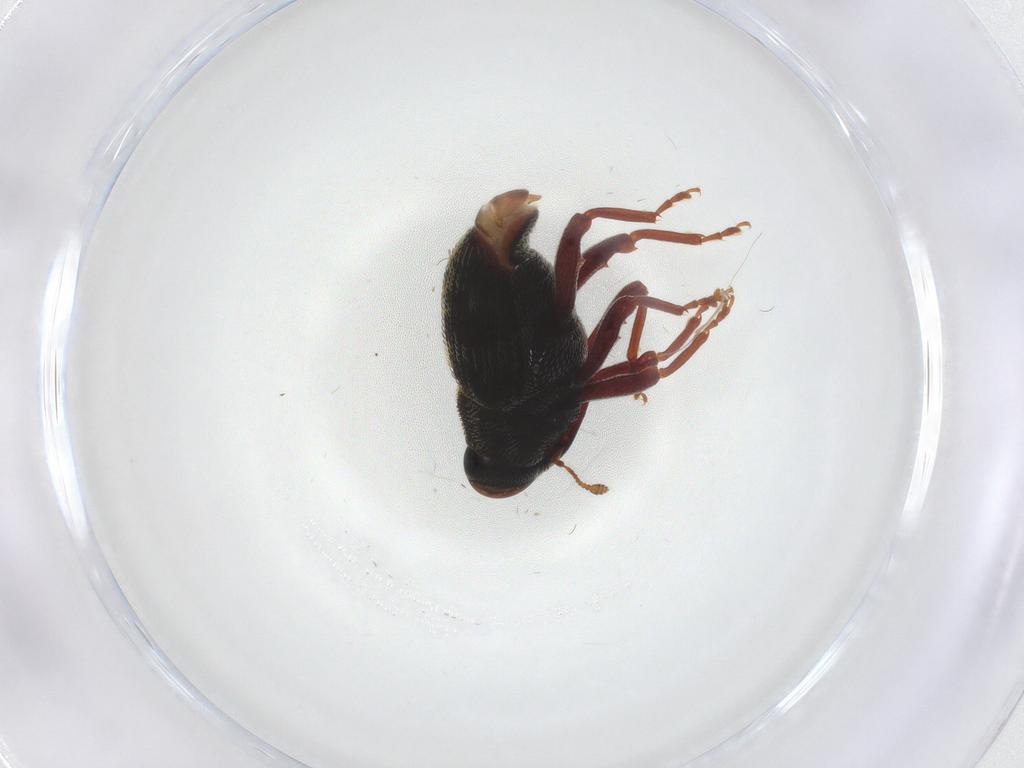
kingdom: Animalia
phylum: Arthropoda
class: Insecta
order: Coleoptera
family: Curculionidae
